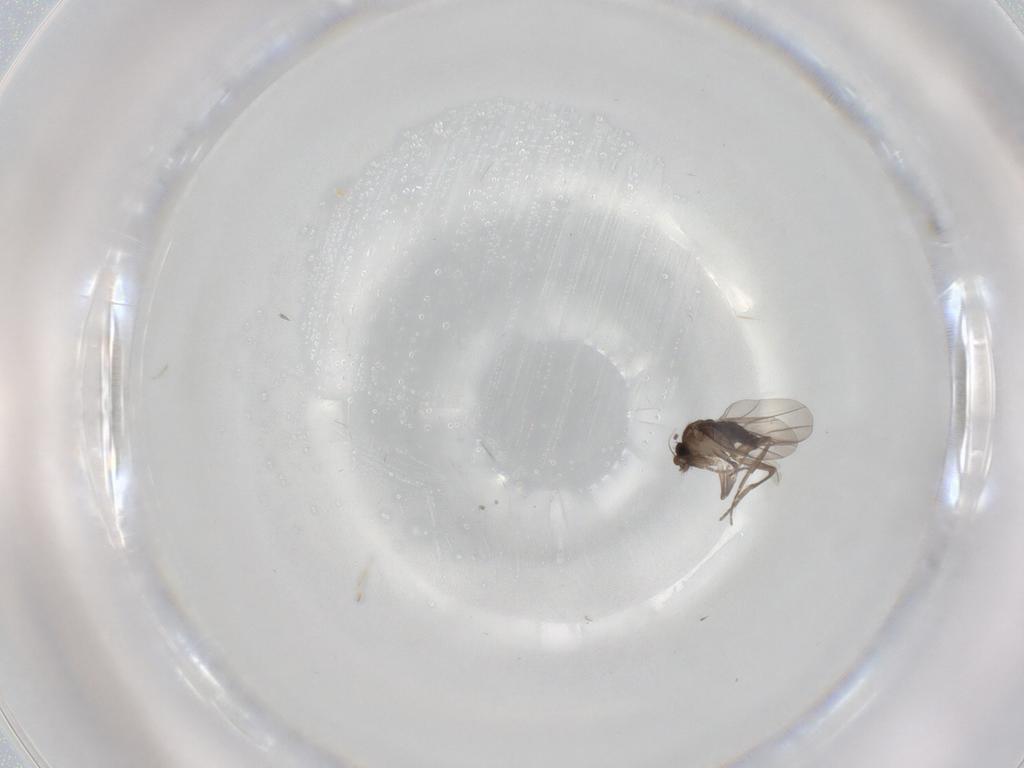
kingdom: Animalia
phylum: Arthropoda
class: Insecta
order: Diptera
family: Phoridae
